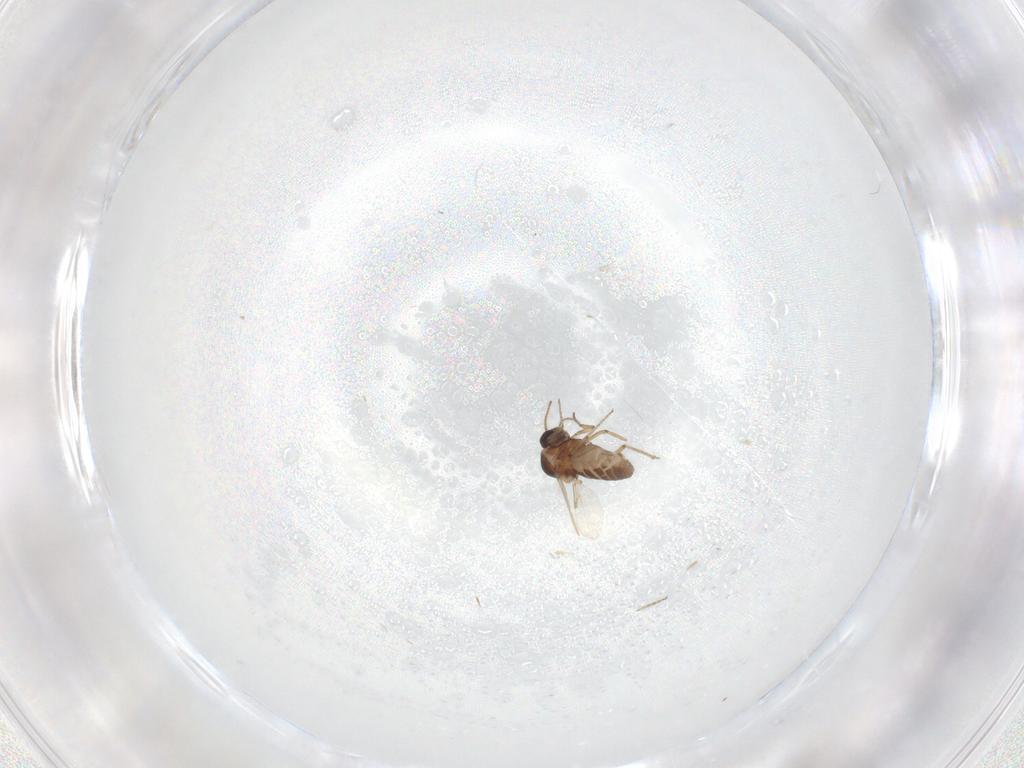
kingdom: Animalia
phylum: Arthropoda
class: Insecta
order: Diptera
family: Ceratopogonidae
